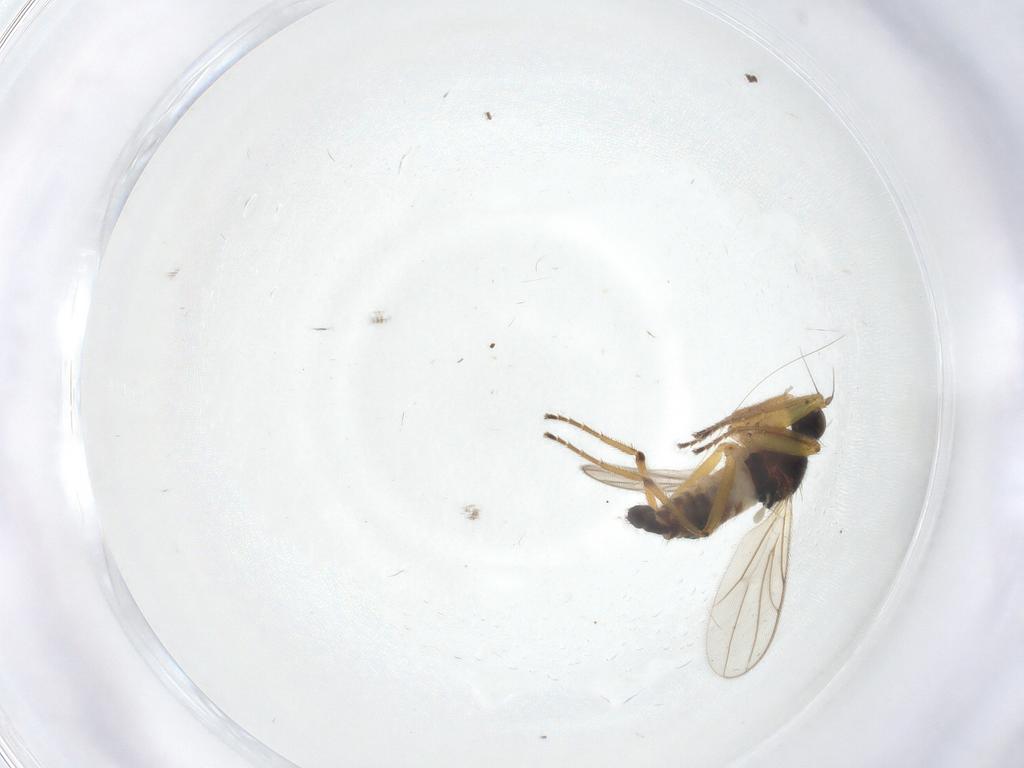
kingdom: Animalia
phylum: Arthropoda
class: Insecta
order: Diptera
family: Hybotidae
